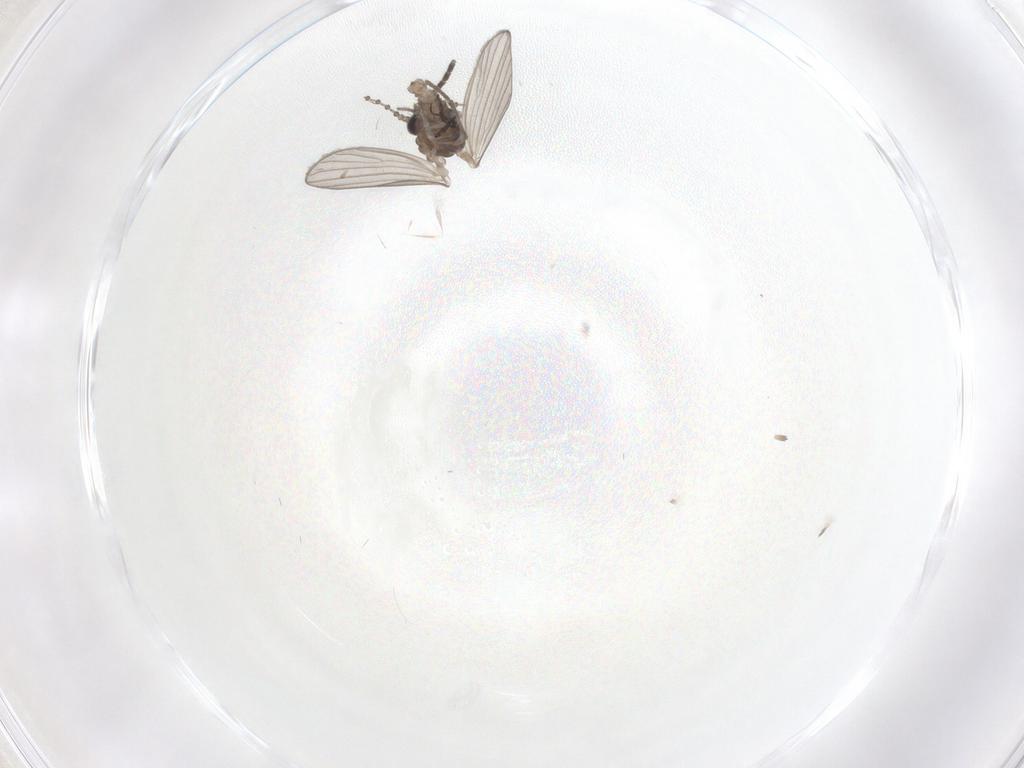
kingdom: Animalia
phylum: Arthropoda
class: Insecta
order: Diptera
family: Psychodidae
